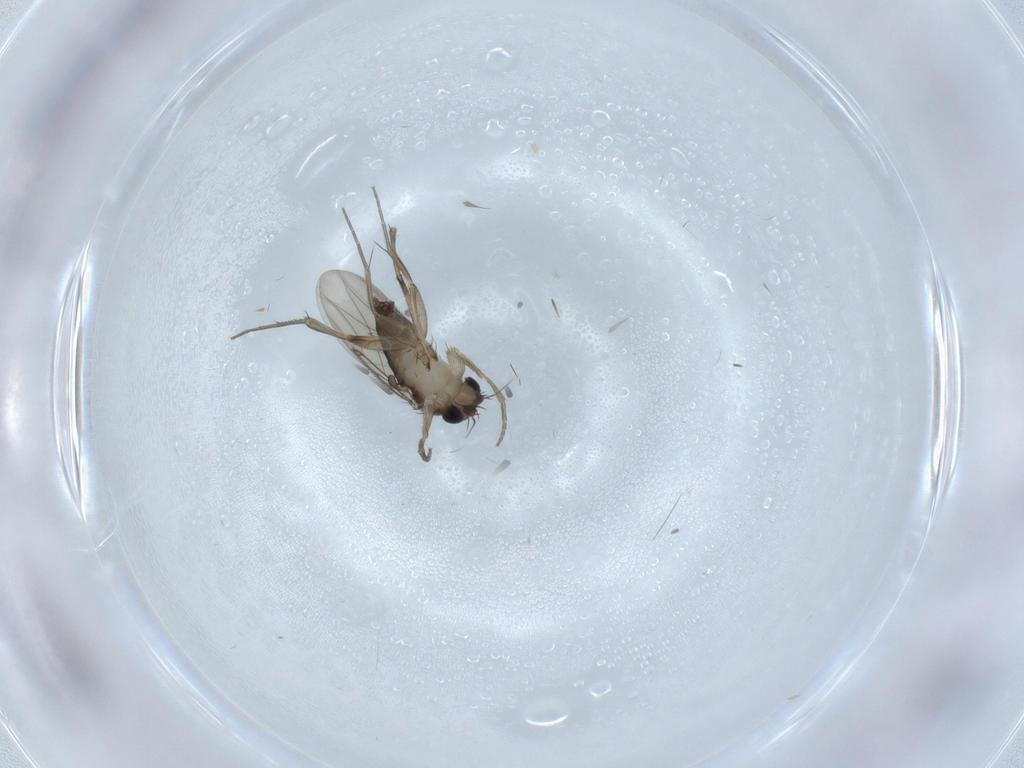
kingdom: Animalia
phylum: Arthropoda
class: Insecta
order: Diptera
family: Phoridae
